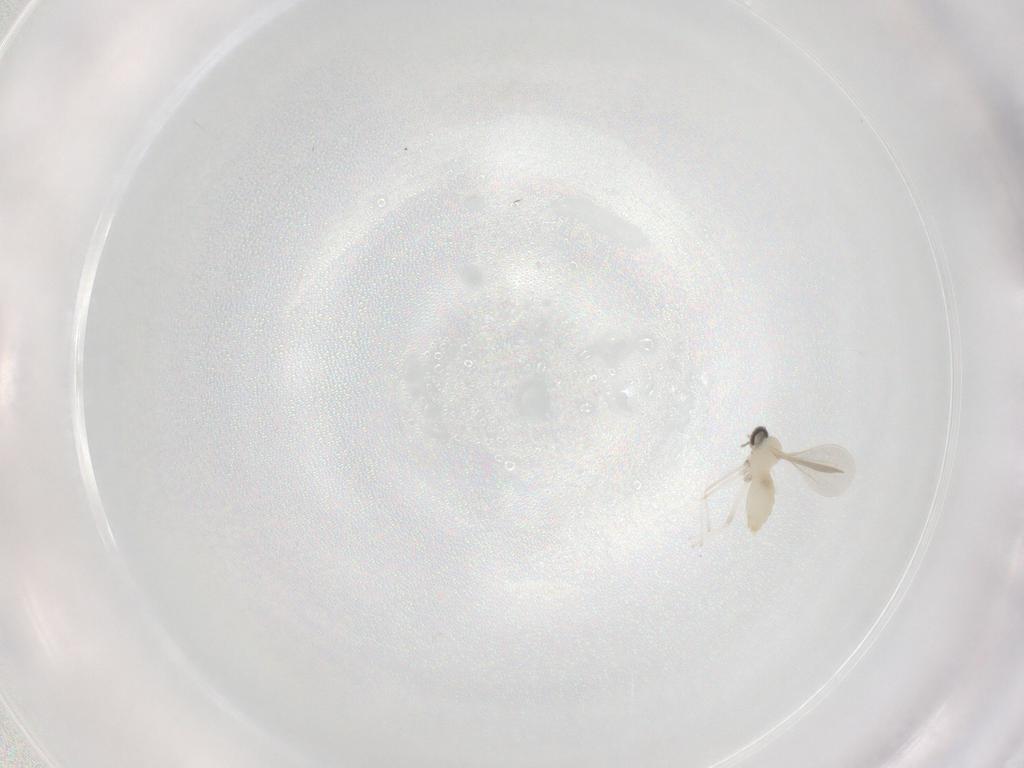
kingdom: Animalia
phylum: Arthropoda
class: Insecta
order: Diptera
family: Cecidomyiidae
